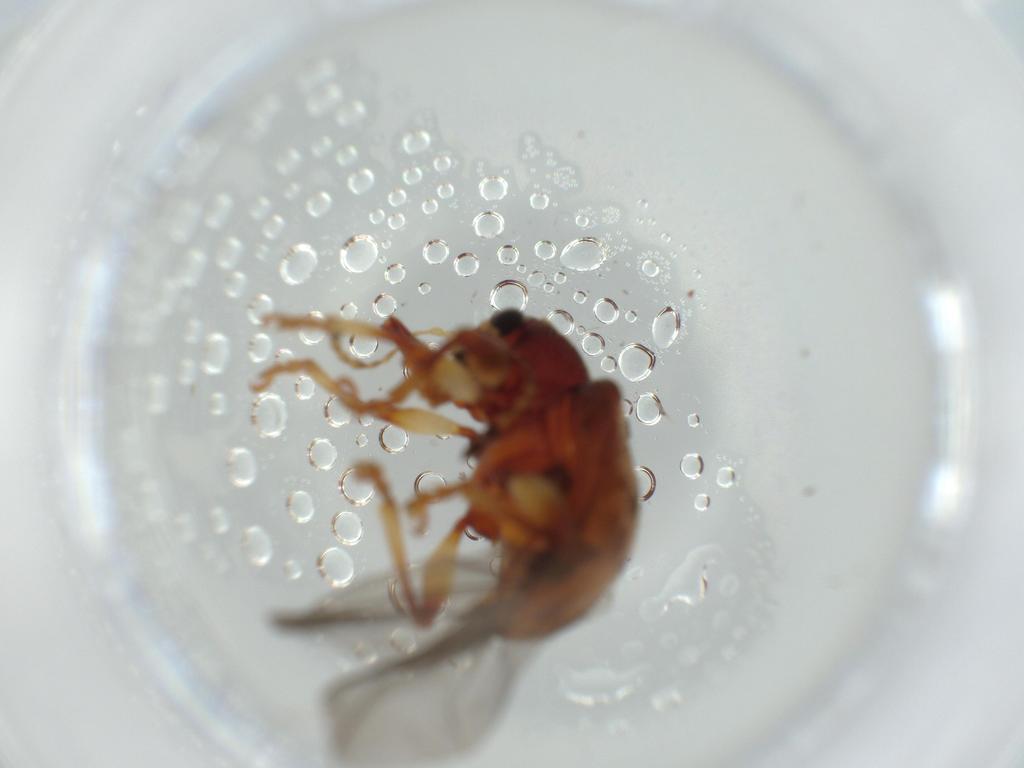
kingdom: Animalia
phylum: Arthropoda
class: Insecta
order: Coleoptera
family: Chrysomelidae
